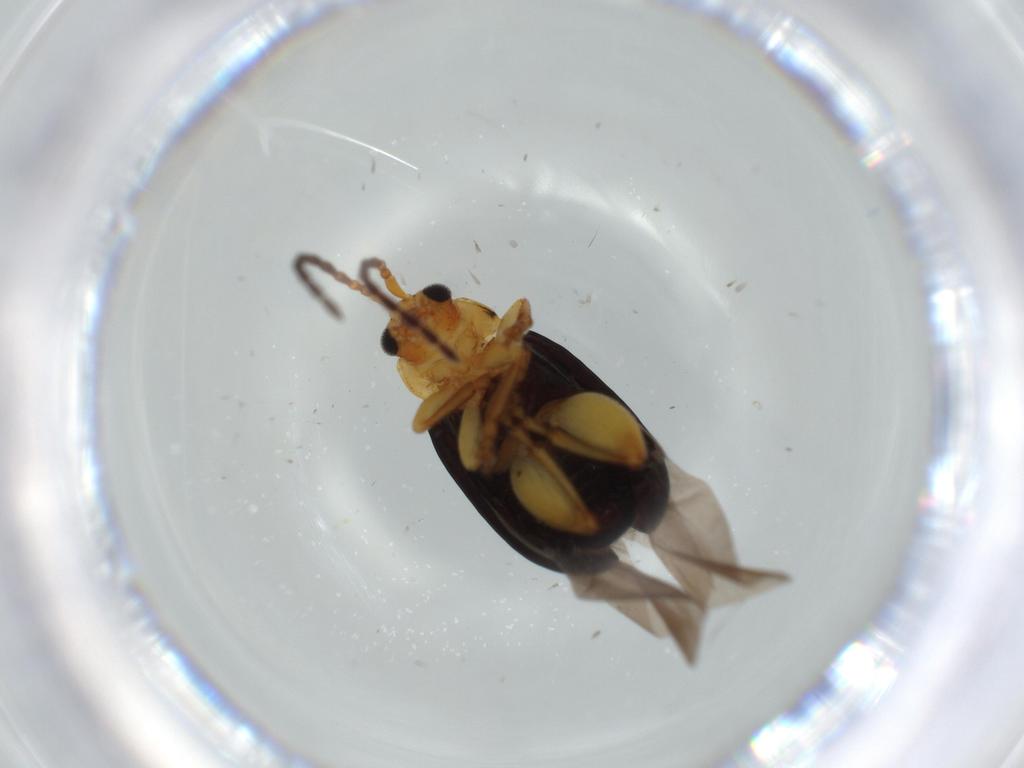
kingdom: Animalia
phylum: Arthropoda
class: Insecta
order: Coleoptera
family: Chrysomelidae
